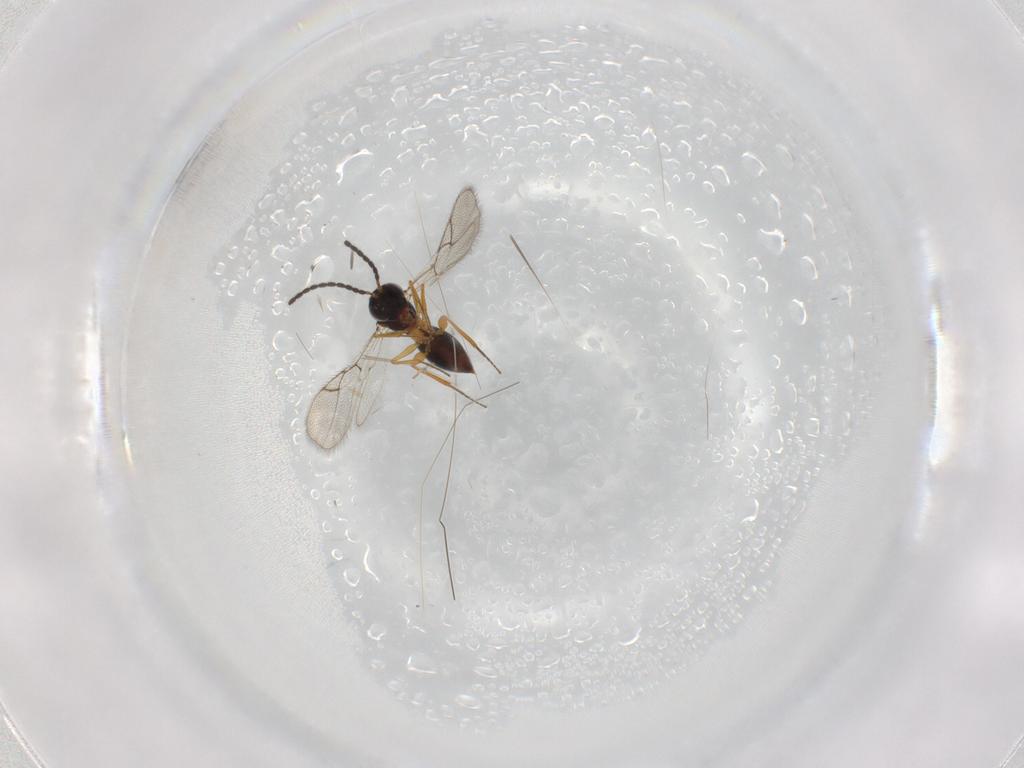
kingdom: Animalia
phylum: Arthropoda
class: Insecta
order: Hymenoptera
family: Figitidae
